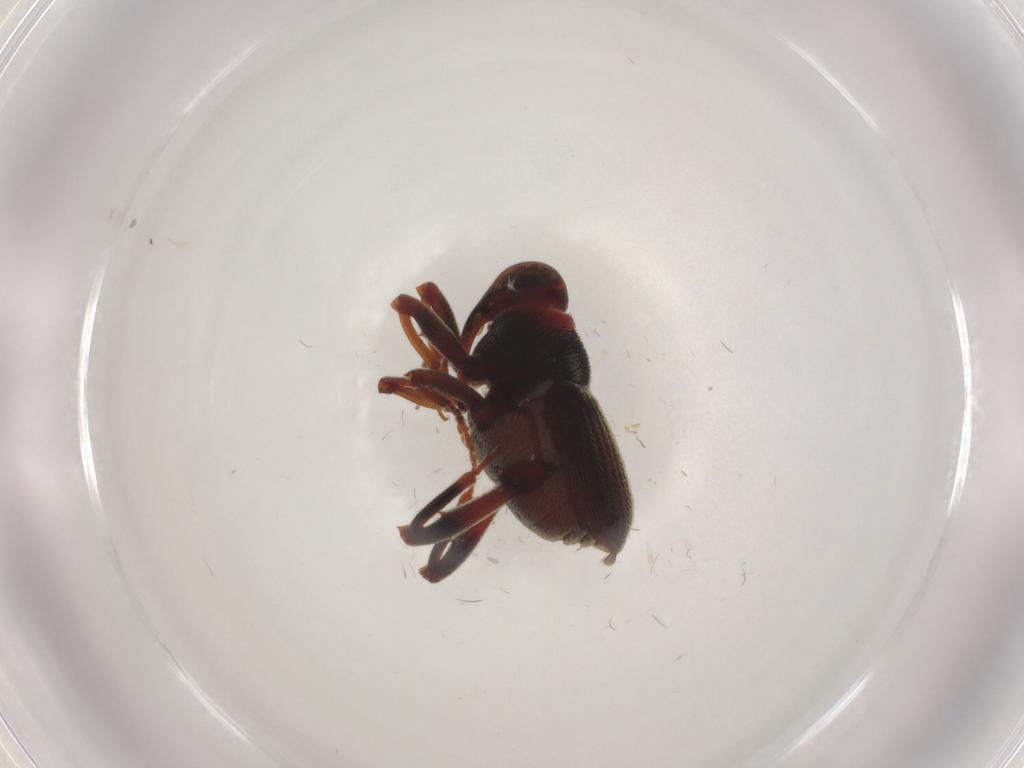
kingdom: Animalia
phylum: Arthropoda
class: Insecta
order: Coleoptera
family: Curculionidae
